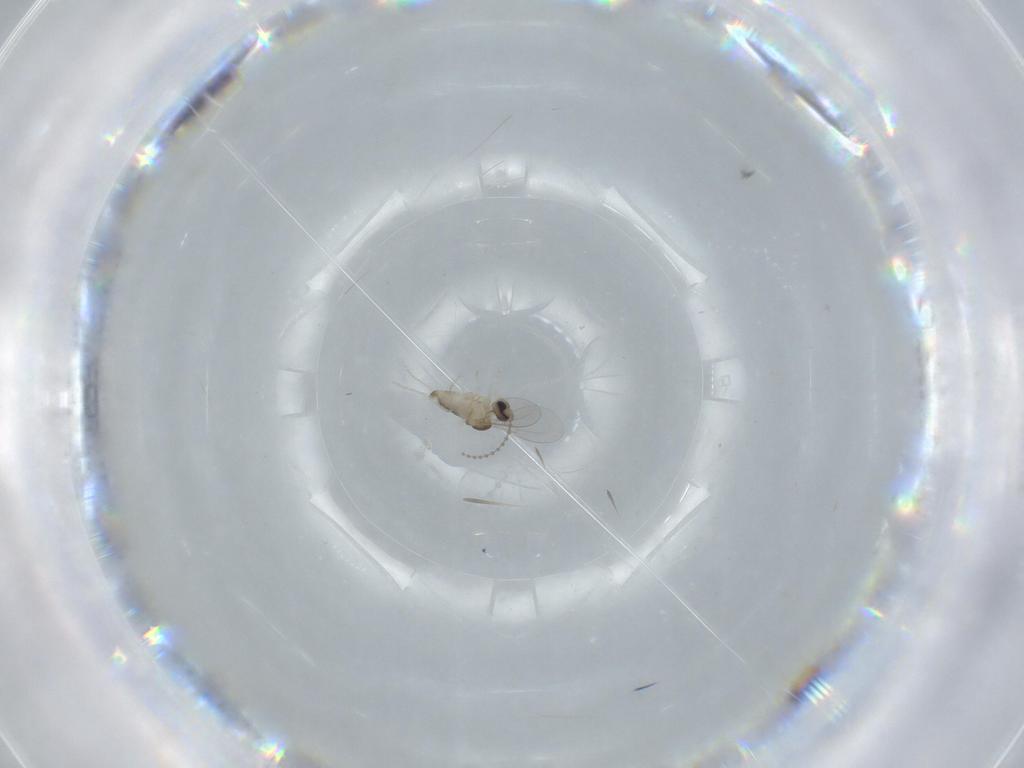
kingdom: Animalia
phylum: Arthropoda
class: Insecta
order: Diptera
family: Cecidomyiidae
